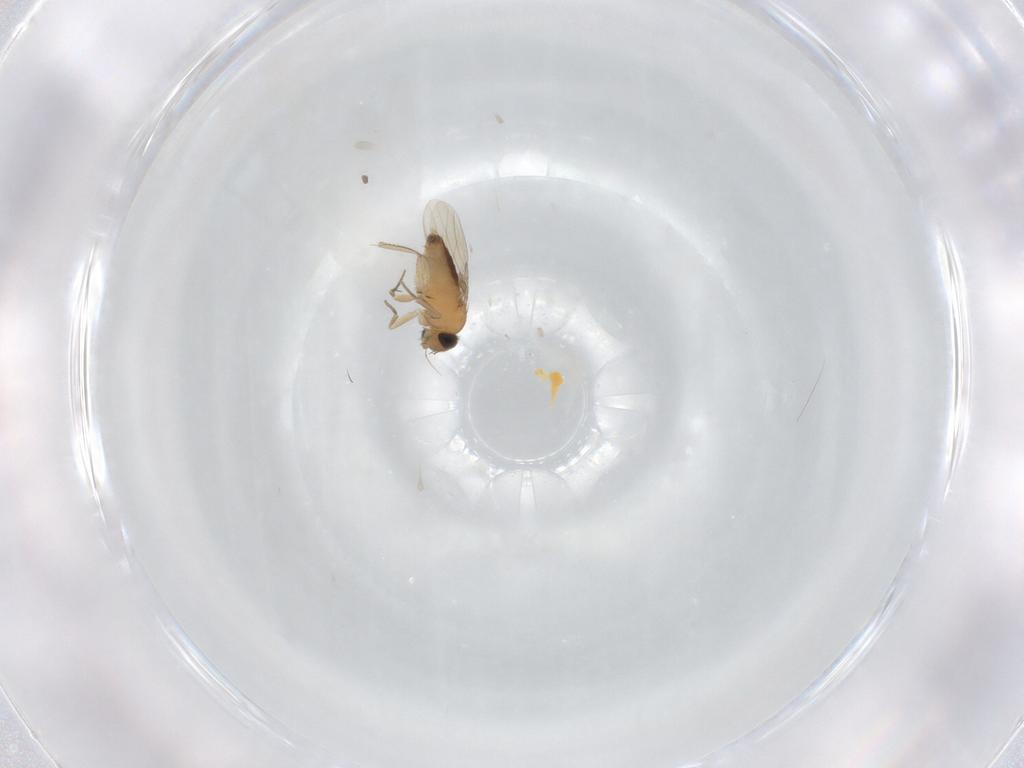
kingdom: Animalia
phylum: Arthropoda
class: Insecta
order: Diptera
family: Phoridae
